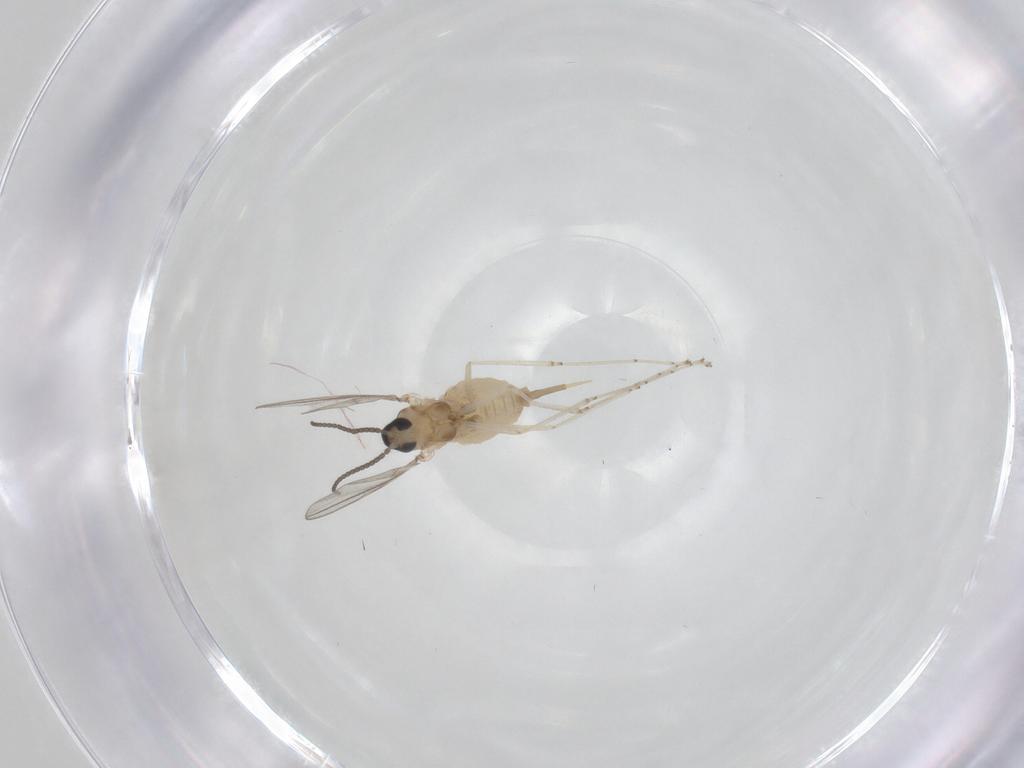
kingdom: Animalia
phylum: Arthropoda
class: Insecta
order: Diptera
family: Cecidomyiidae
